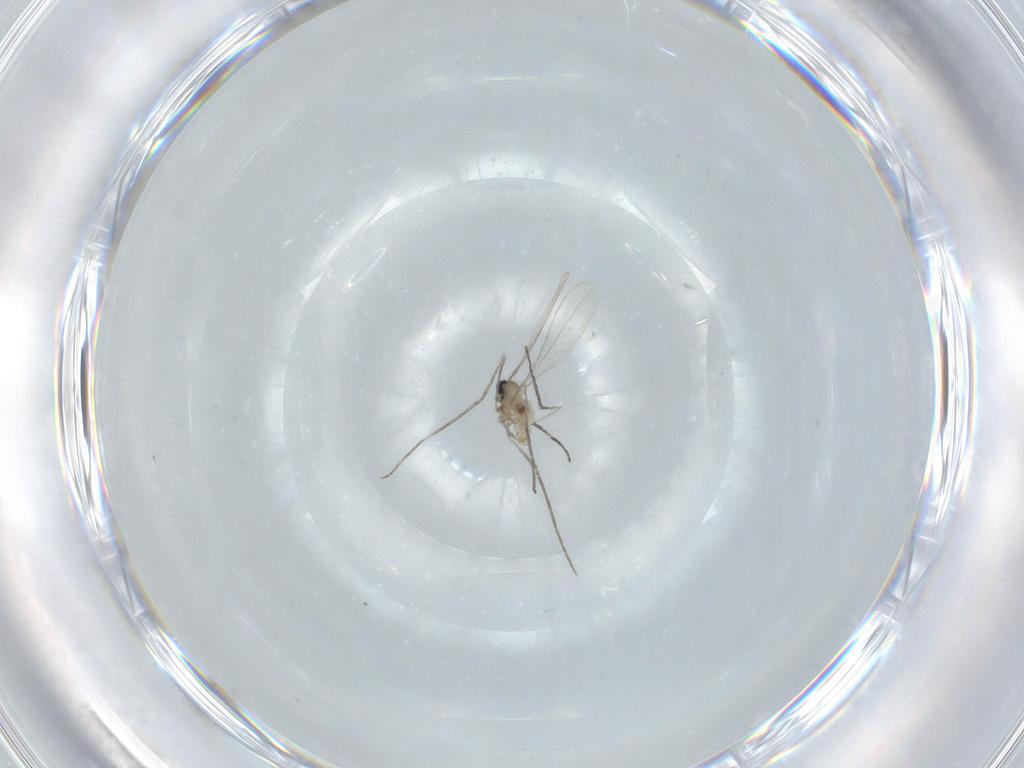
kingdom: Animalia
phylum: Arthropoda
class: Insecta
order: Diptera
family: Cecidomyiidae
